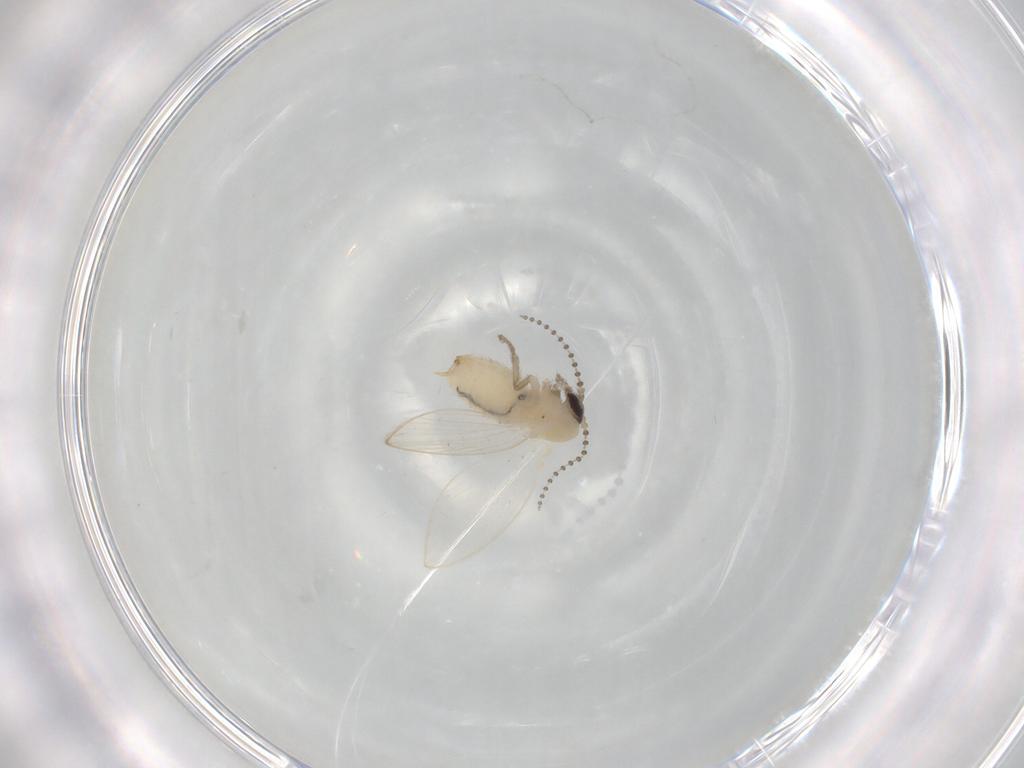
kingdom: Animalia
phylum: Arthropoda
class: Insecta
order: Diptera
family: Psychodidae
